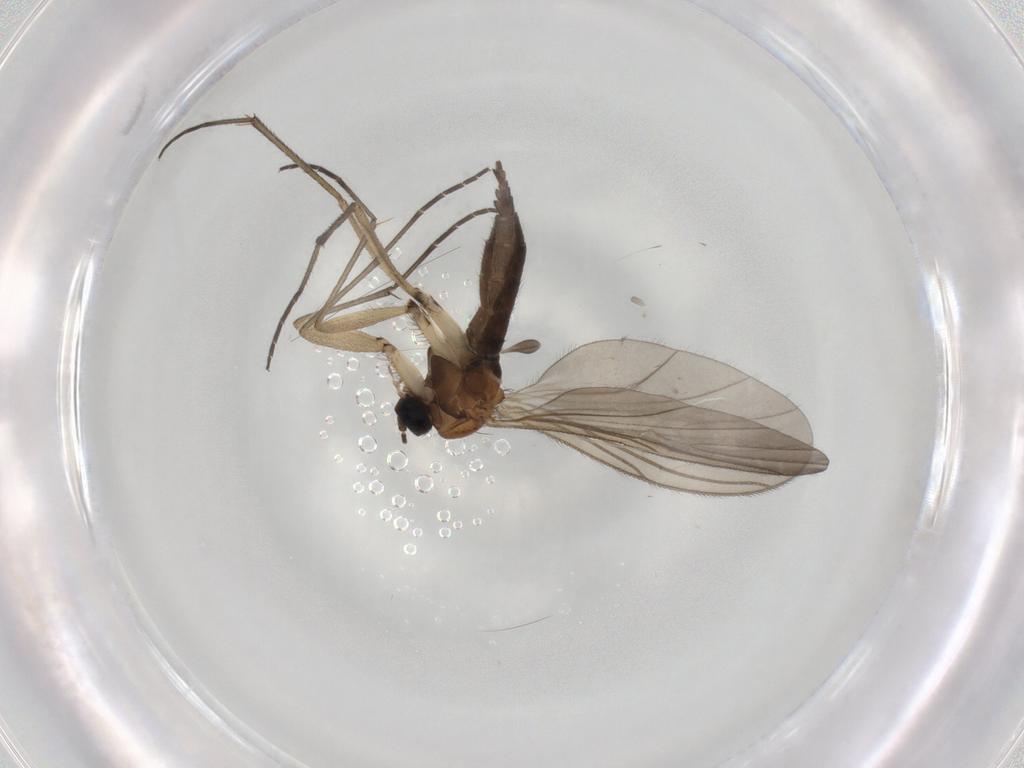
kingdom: Animalia
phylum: Arthropoda
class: Insecta
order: Diptera
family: Sciaridae
